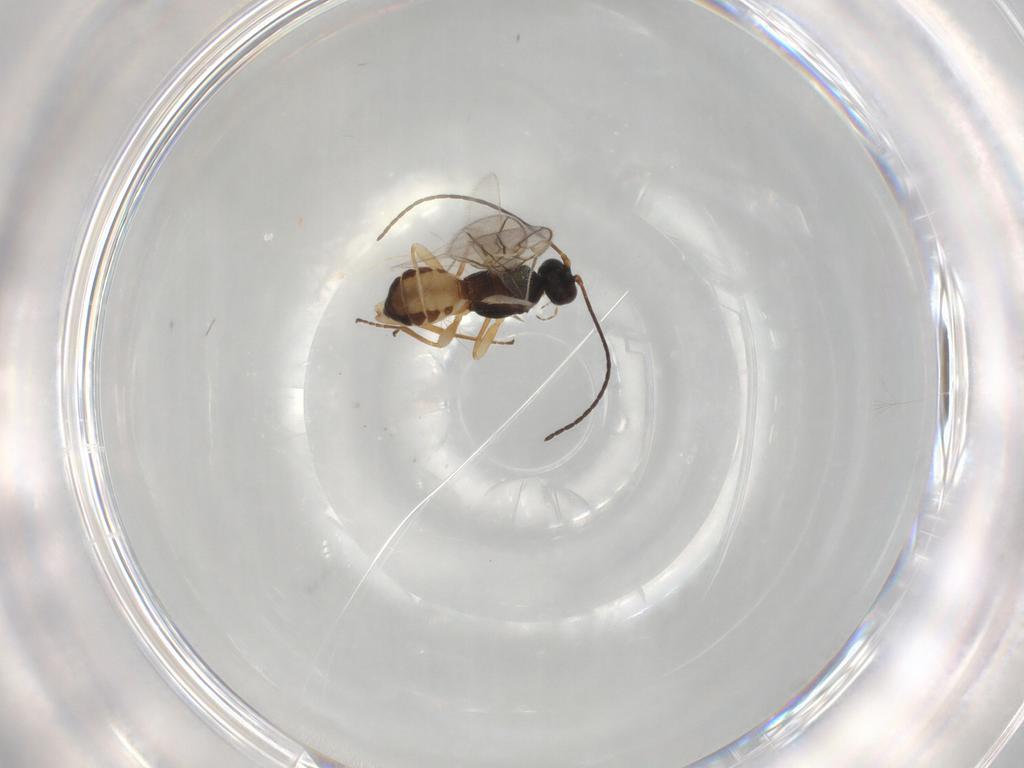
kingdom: Animalia
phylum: Arthropoda
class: Insecta
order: Hymenoptera
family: Braconidae
